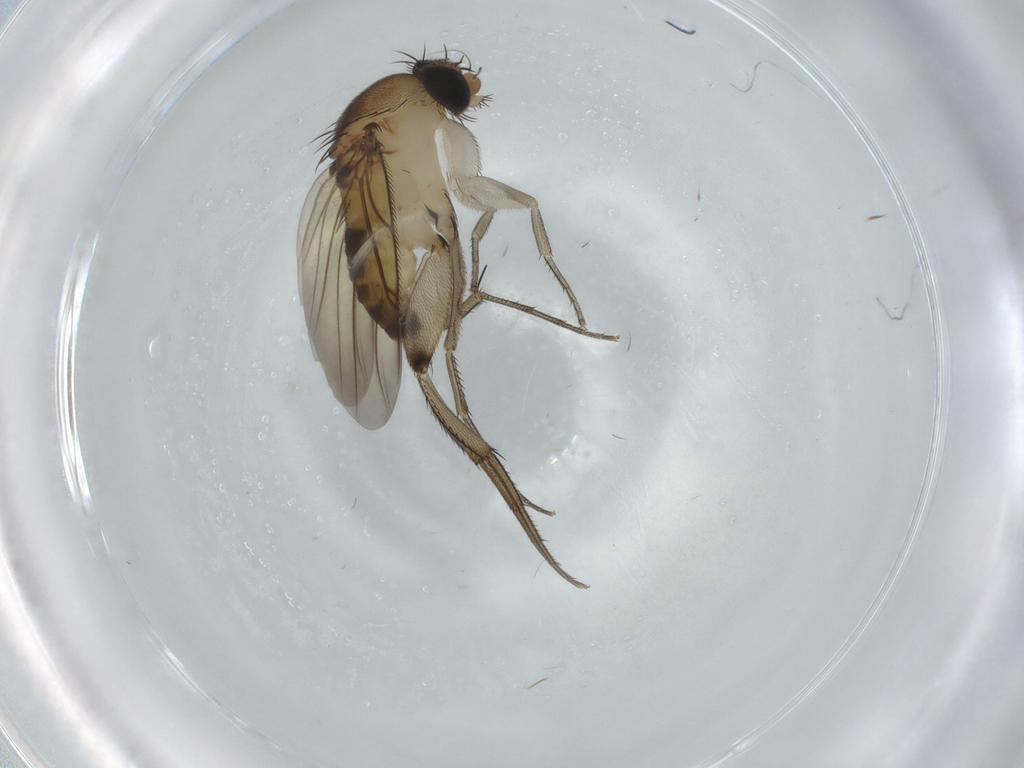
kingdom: Animalia
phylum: Arthropoda
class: Insecta
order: Diptera
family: Phoridae
